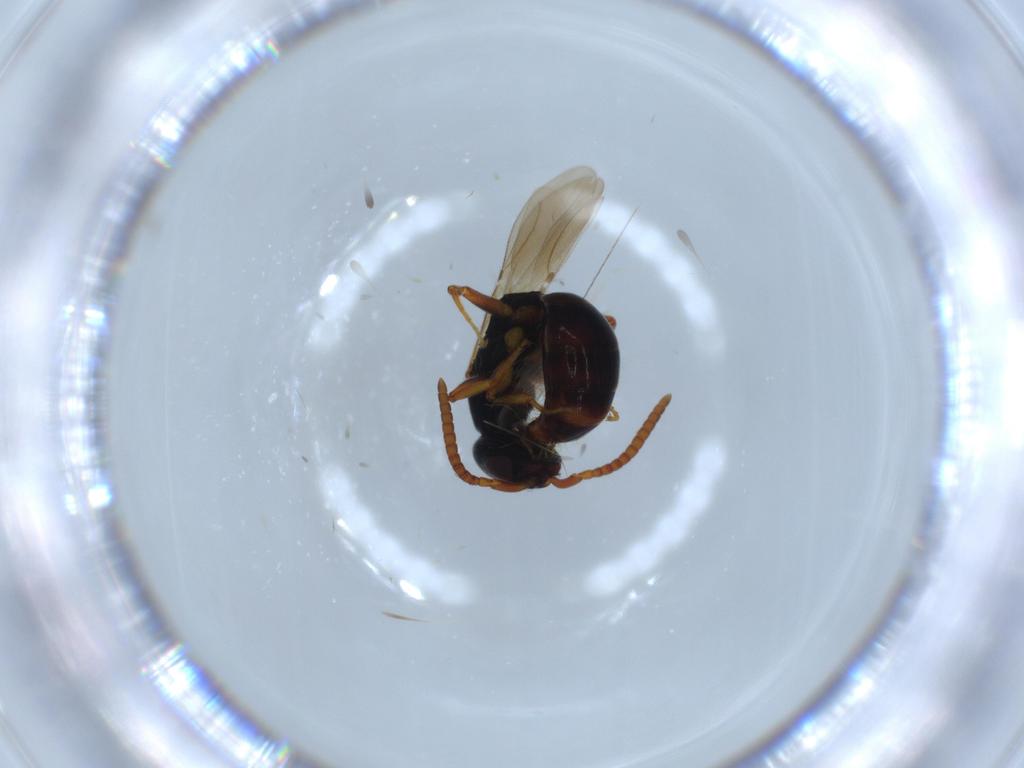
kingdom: Animalia
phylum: Arthropoda
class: Insecta
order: Hymenoptera
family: Bethylidae
